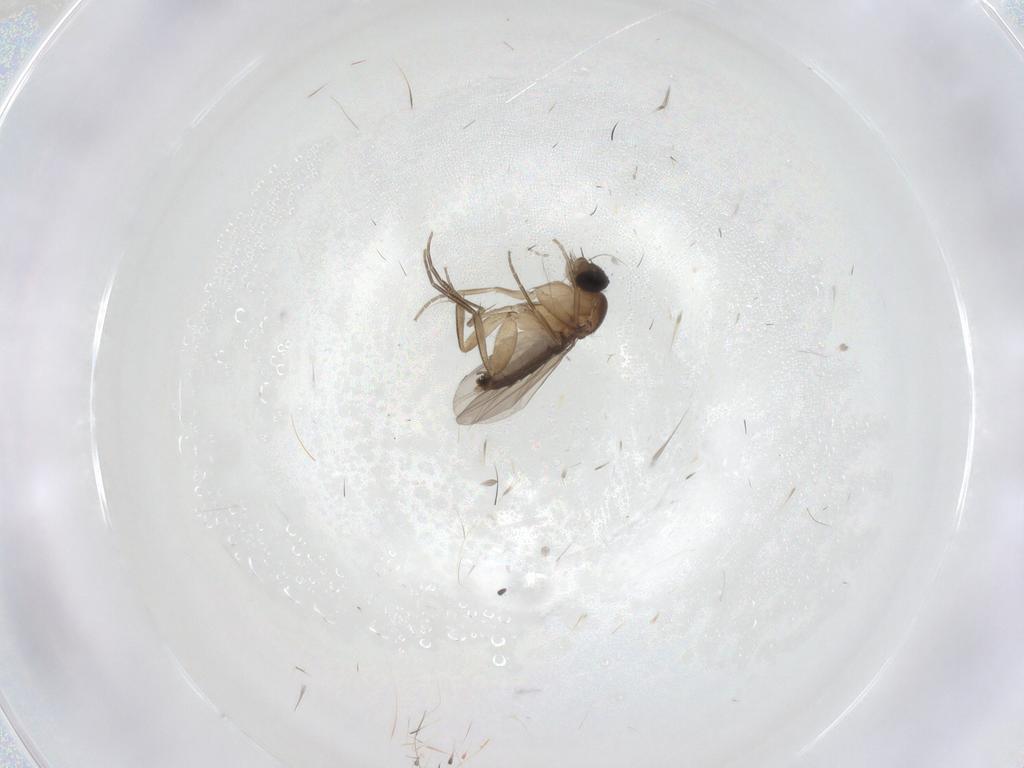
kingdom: Animalia
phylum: Arthropoda
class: Insecta
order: Diptera
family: Phoridae
